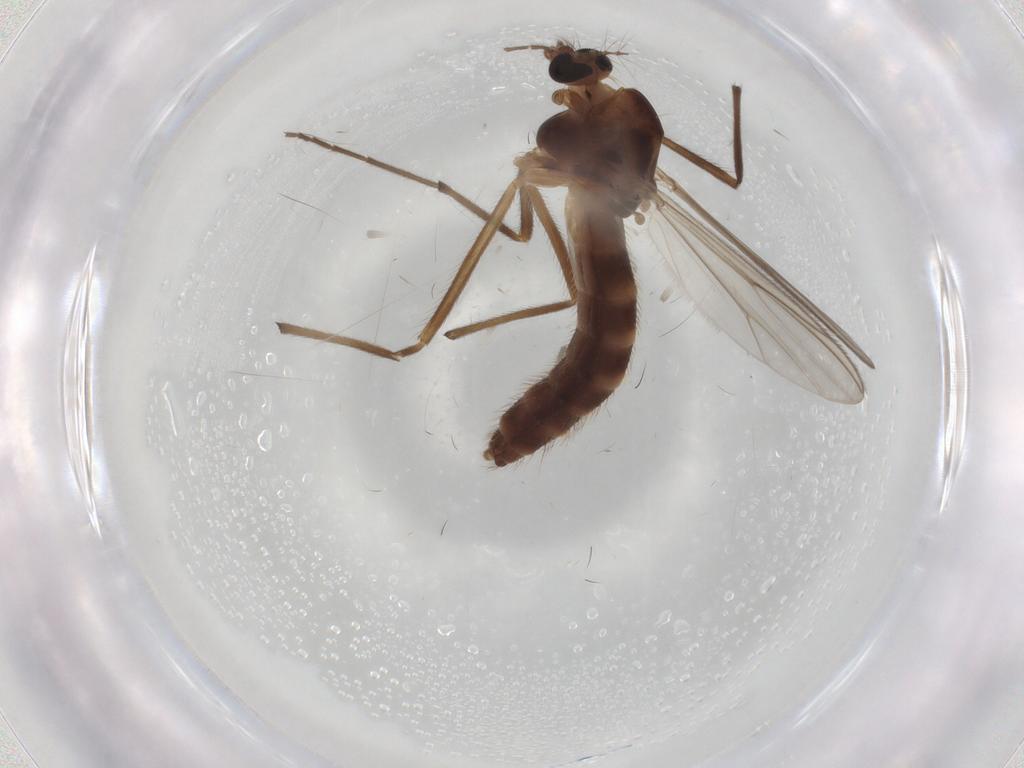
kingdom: Animalia
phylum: Arthropoda
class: Insecta
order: Diptera
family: Chironomidae
